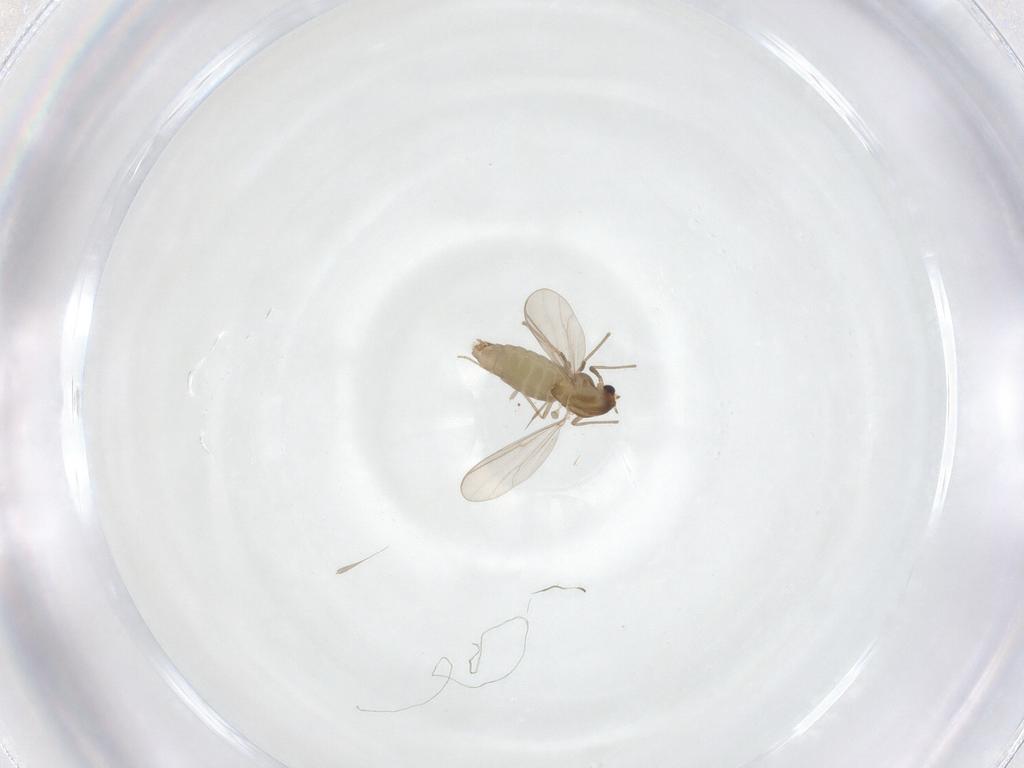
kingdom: Animalia
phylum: Arthropoda
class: Insecta
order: Diptera
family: Chironomidae
